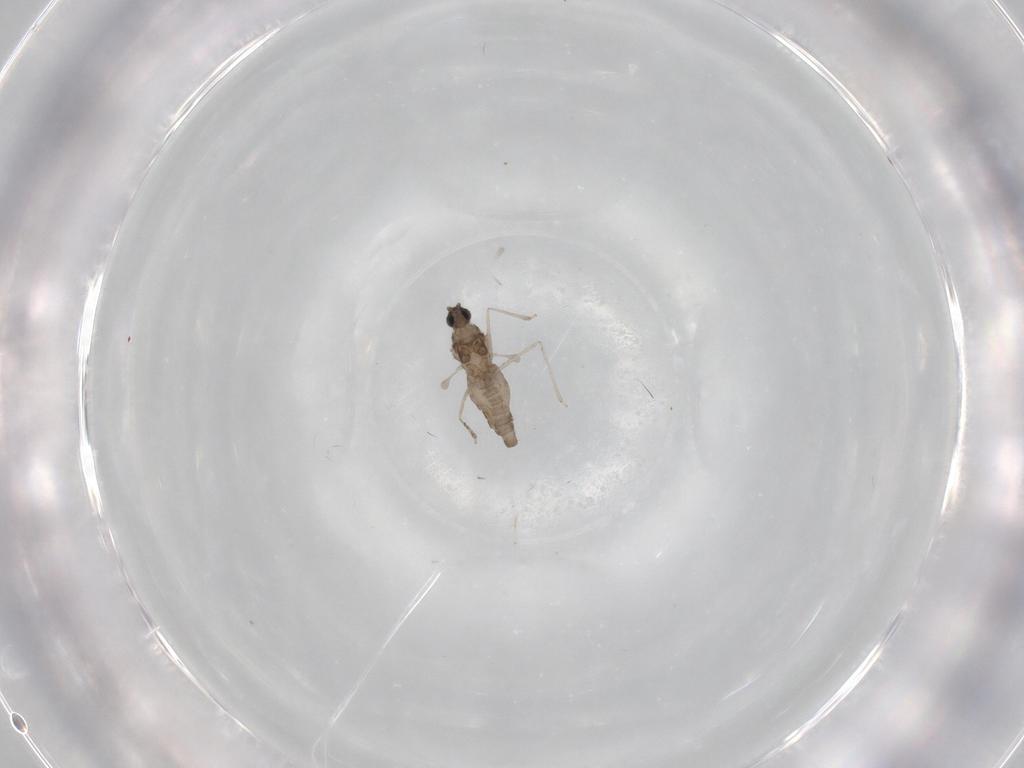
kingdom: Animalia
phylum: Arthropoda
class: Insecta
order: Diptera
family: Cecidomyiidae
